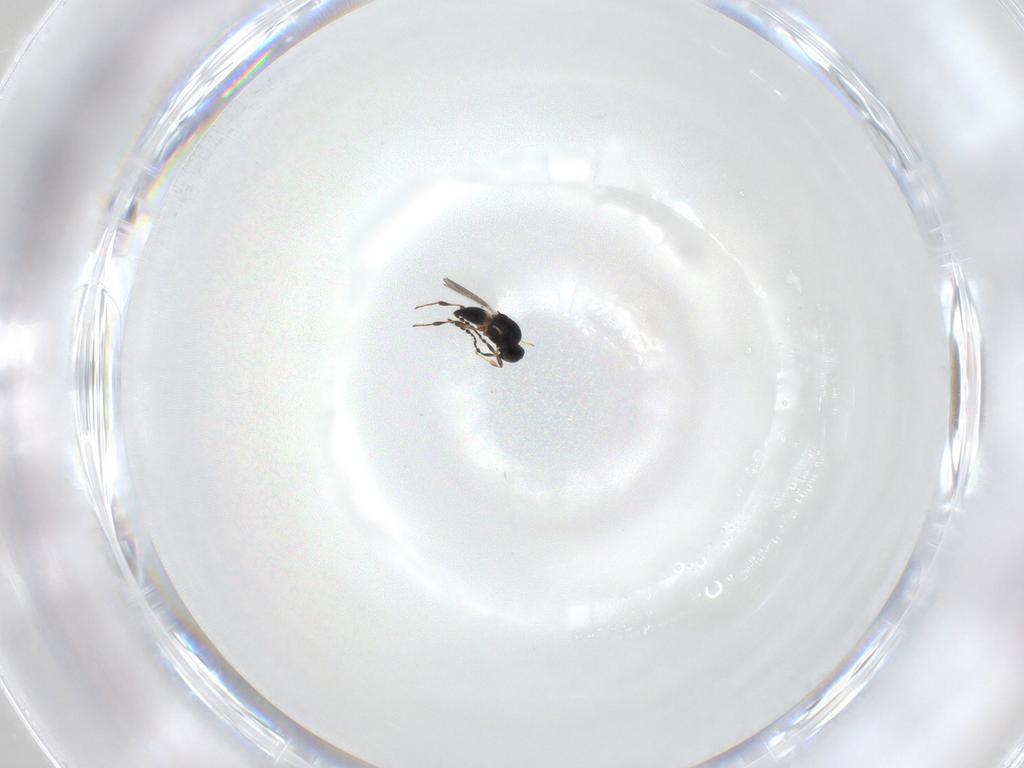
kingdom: Animalia
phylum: Arthropoda
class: Insecta
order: Hymenoptera
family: Platygastridae
